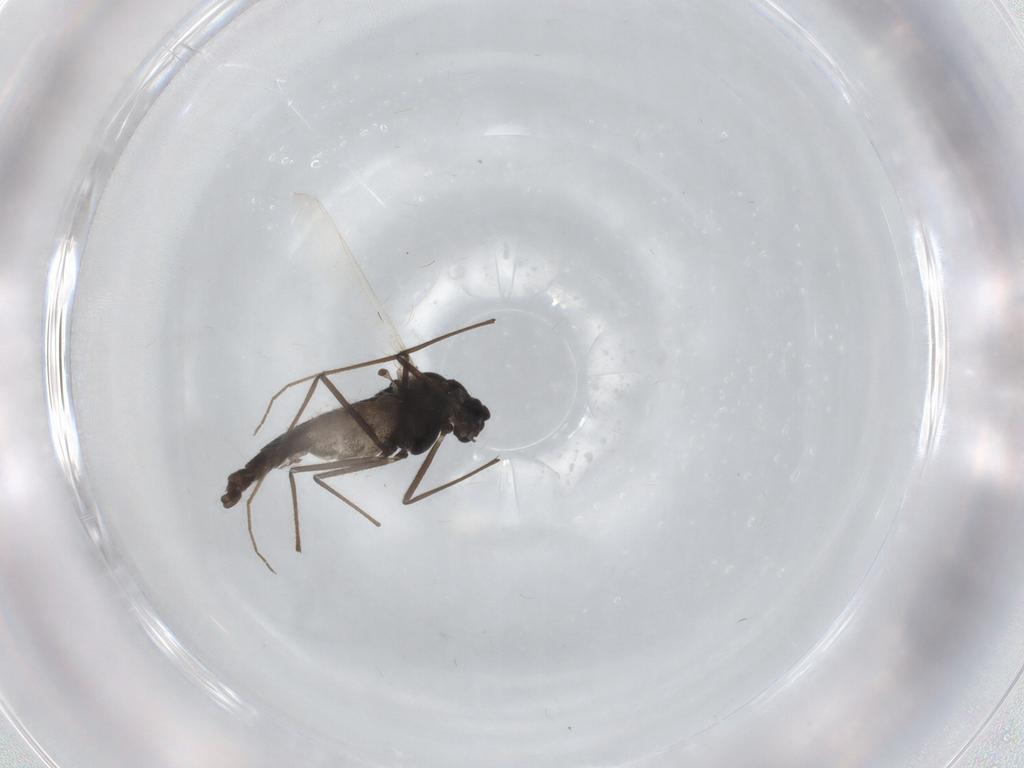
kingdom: Animalia
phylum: Arthropoda
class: Insecta
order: Diptera
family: Chironomidae
